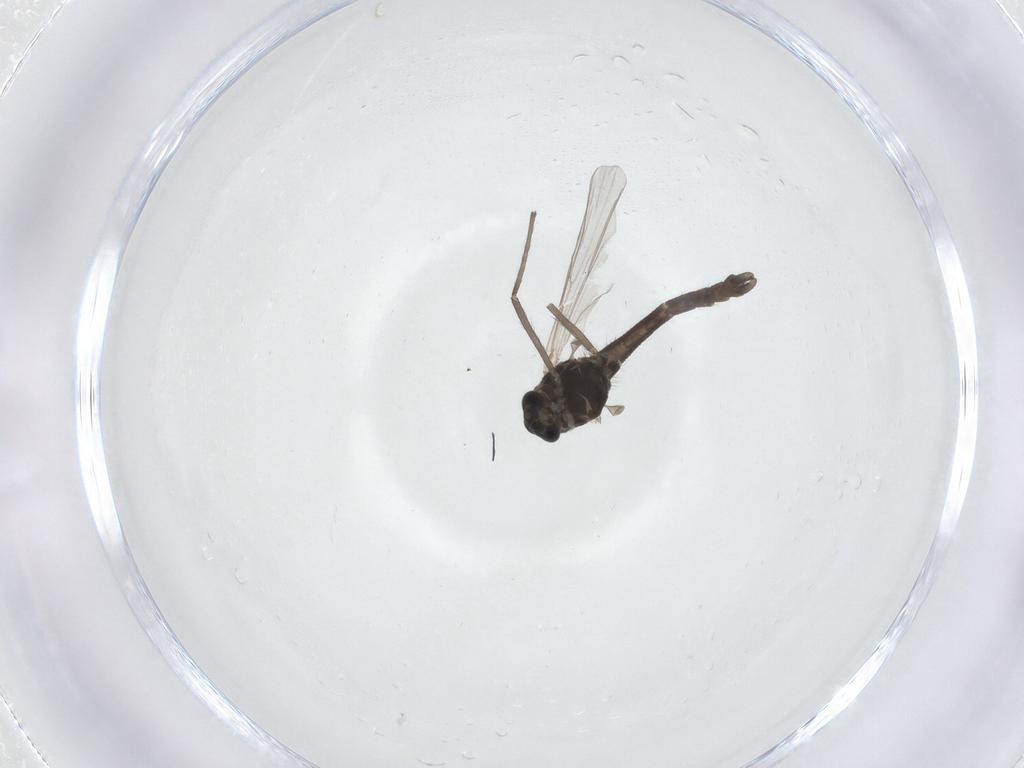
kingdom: Animalia
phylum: Arthropoda
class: Insecta
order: Diptera
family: Chironomidae
